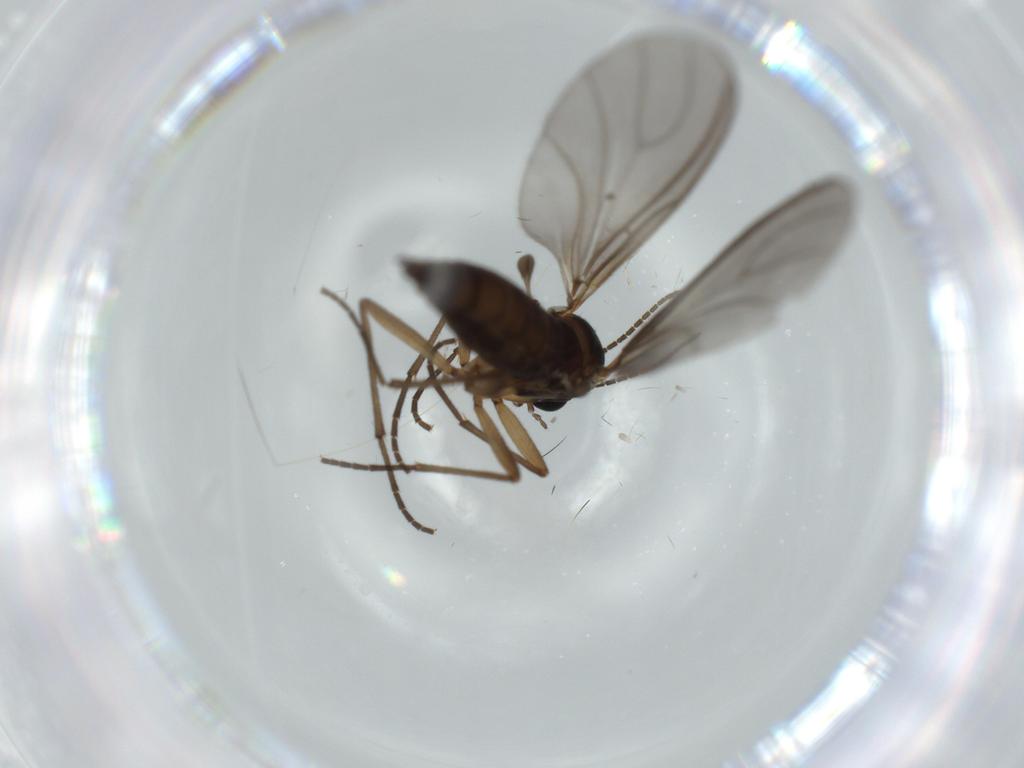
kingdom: Animalia
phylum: Arthropoda
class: Insecta
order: Diptera
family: Sciaridae
